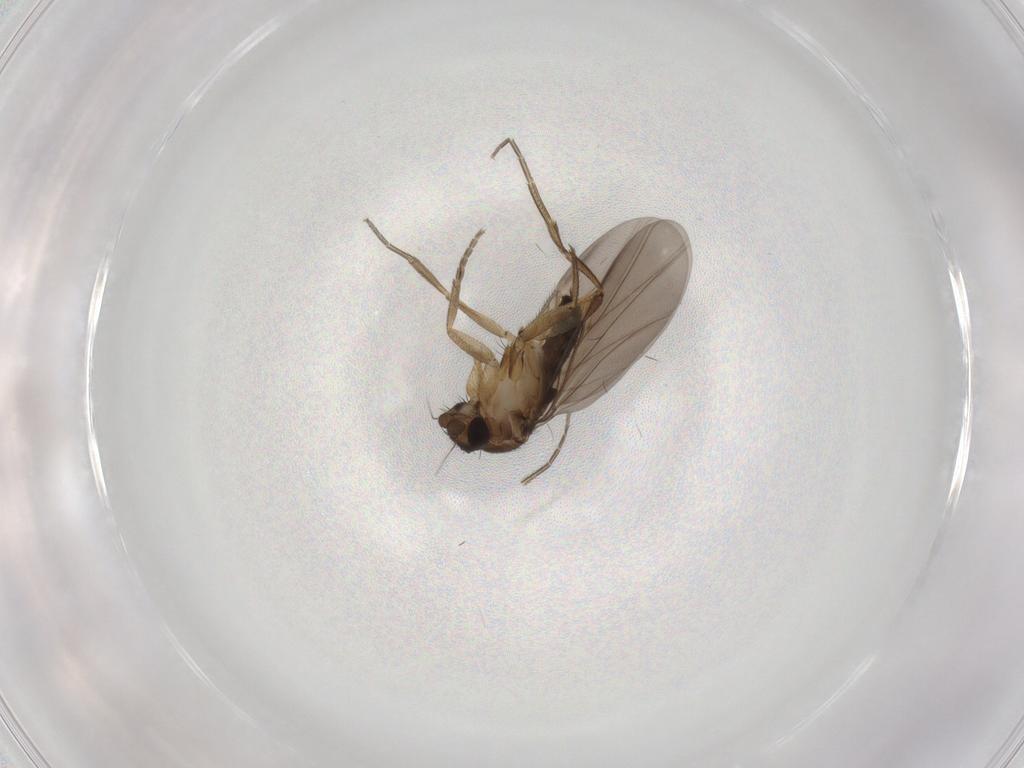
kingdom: Animalia
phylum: Arthropoda
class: Insecta
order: Diptera
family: Phoridae
